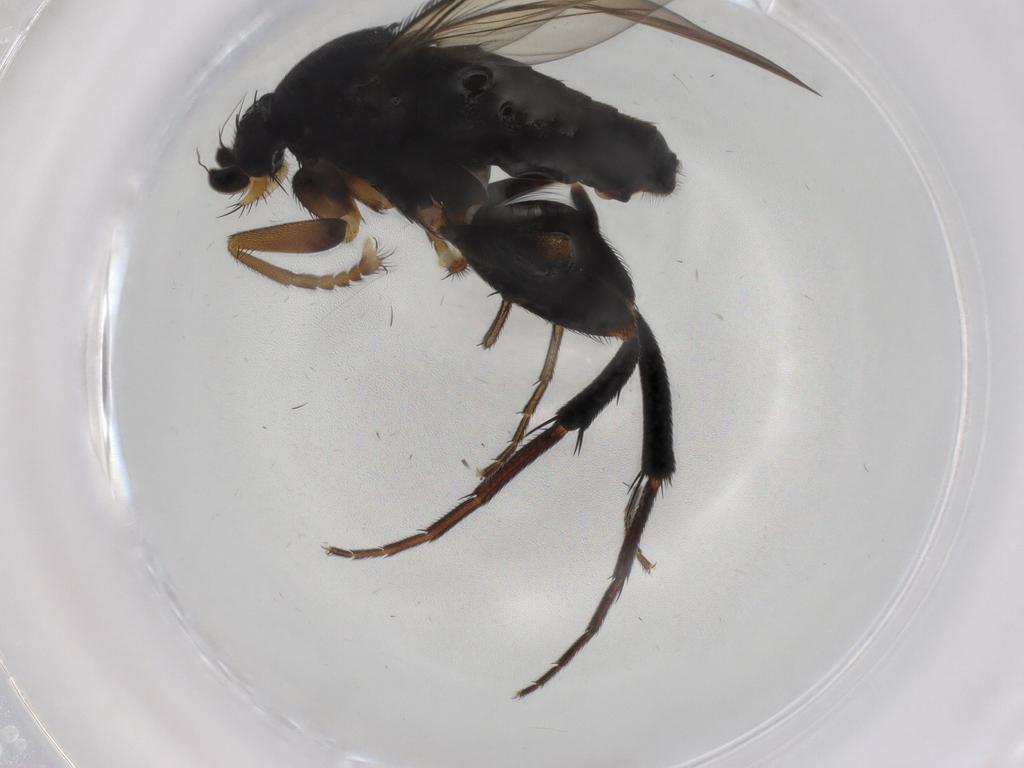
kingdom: Animalia
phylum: Arthropoda
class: Insecta
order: Diptera
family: Phoridae
